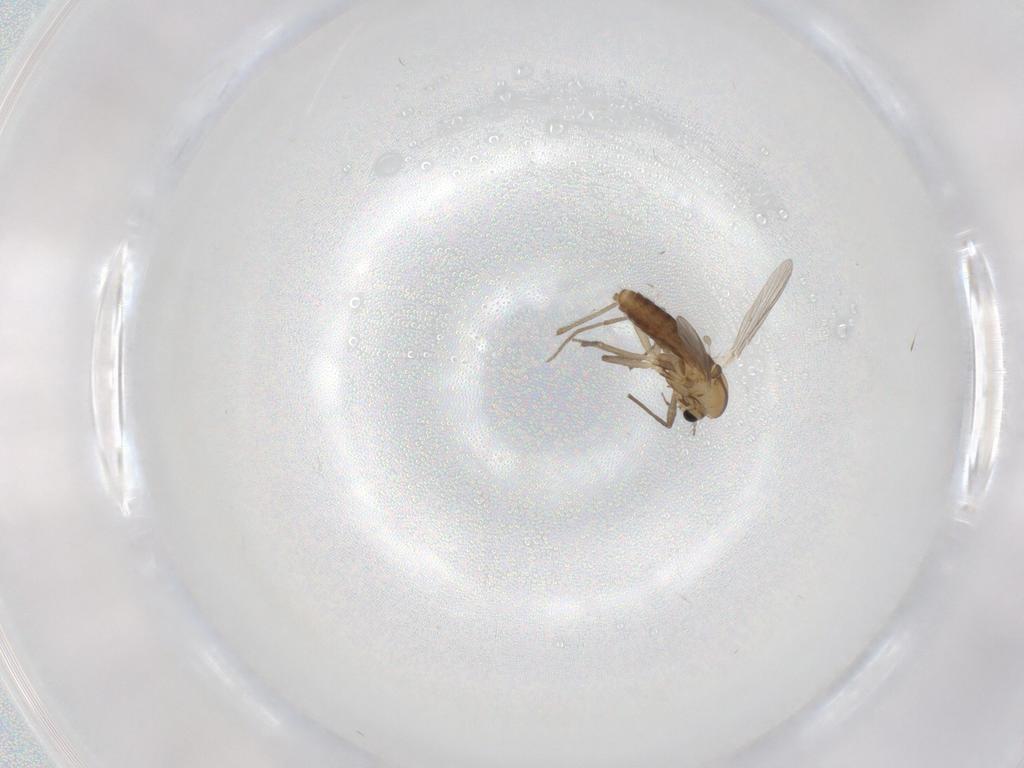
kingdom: Animalia
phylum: Arthropoda
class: Insecta
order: Diptera
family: Chironomidae
